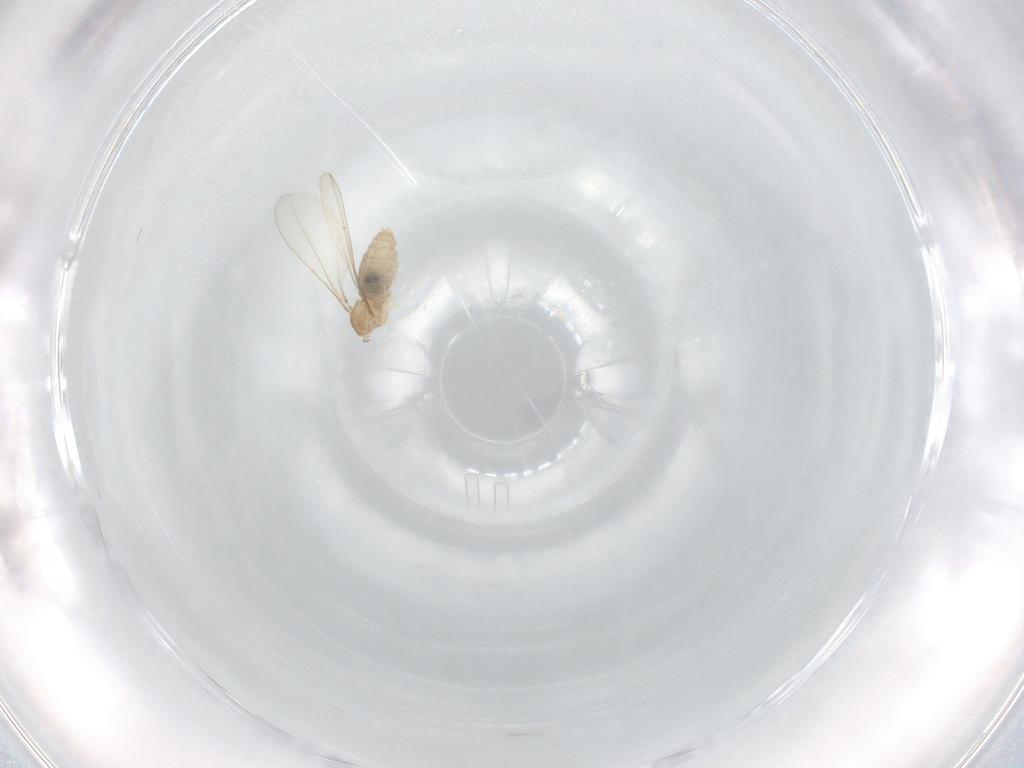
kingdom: Animalia
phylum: Arthropoda
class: Insecta
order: Diptera
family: Cecidomyiidae
